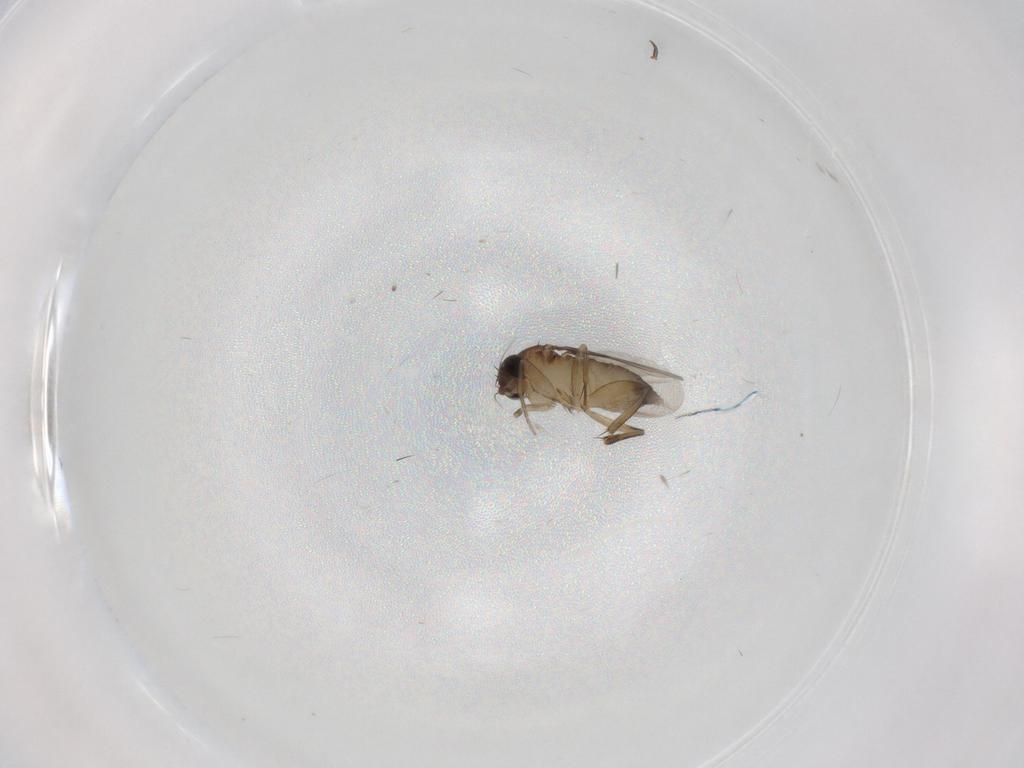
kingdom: Animalia
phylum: Arthropoda
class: Insecta
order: Diptera
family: Phoridae
